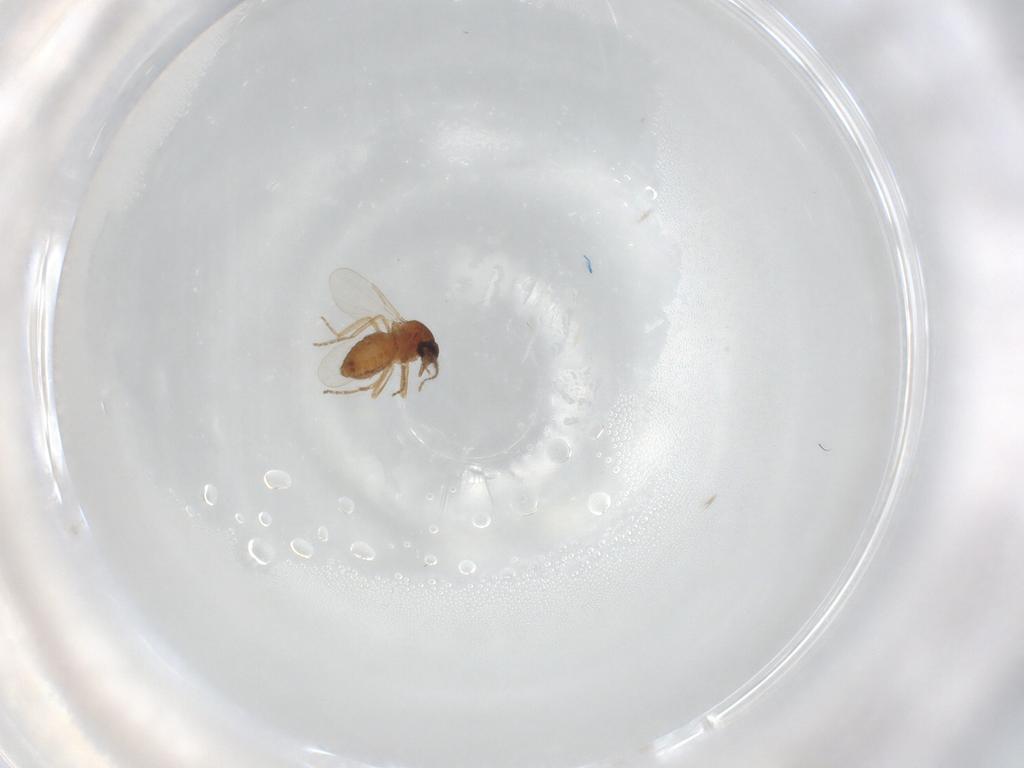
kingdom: Animalia
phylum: Arthropoda
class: Insecta
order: Diptera
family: Ceratopogonidae
